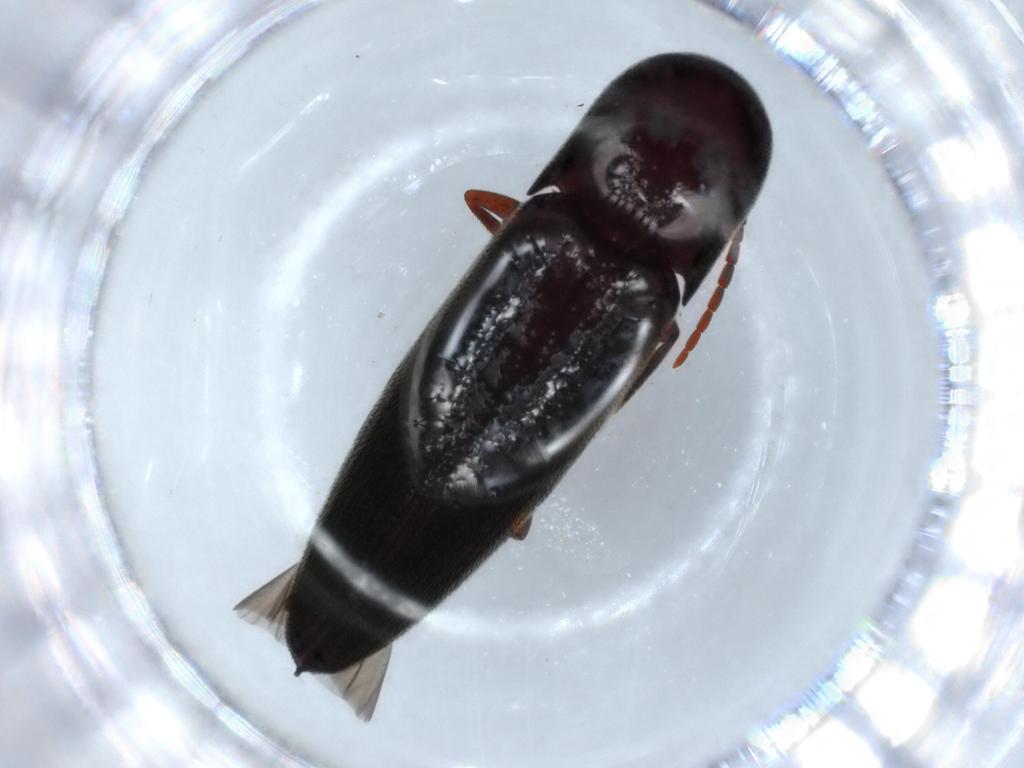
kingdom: Animalia
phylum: Arthropoda
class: Insecta
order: Coleoptera
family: Eucnemidae
